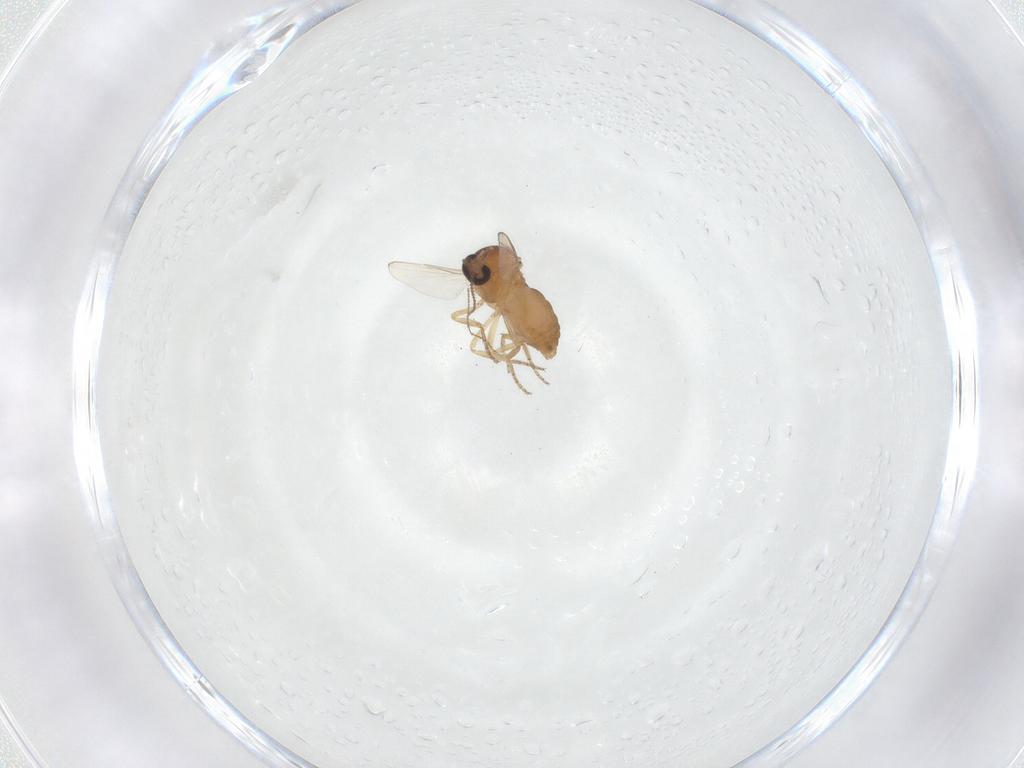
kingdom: Animalia
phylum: Arthropoda
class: Insecta
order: Diptera
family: Ceratopogonidae
